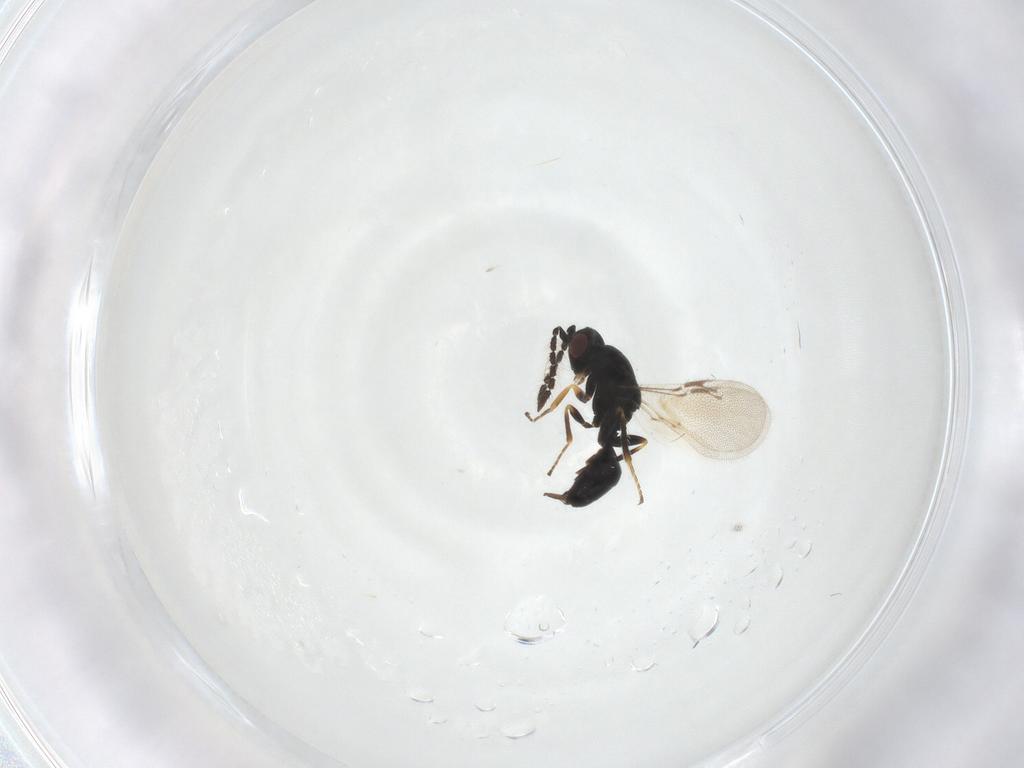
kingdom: Animalia
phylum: Arthropoda
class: Insecta
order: Hymenoptera
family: Eurytomidae
